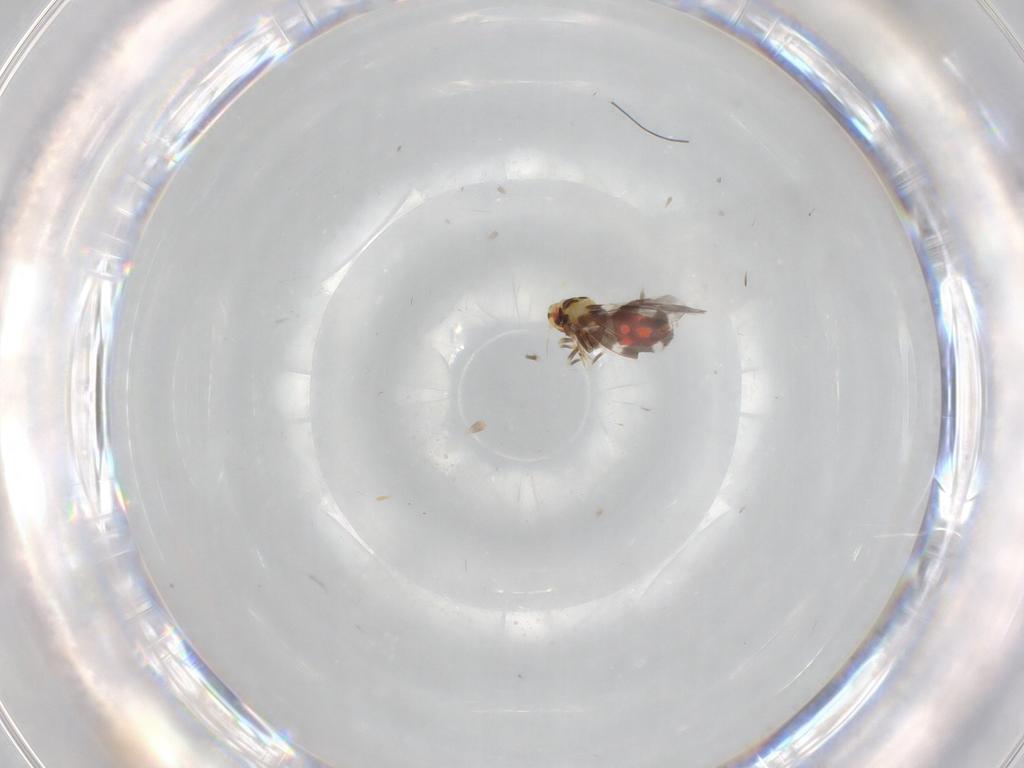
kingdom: Animalia
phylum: Arthropoda
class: Insecta
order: Hemiptera
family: Aleyrodidae
